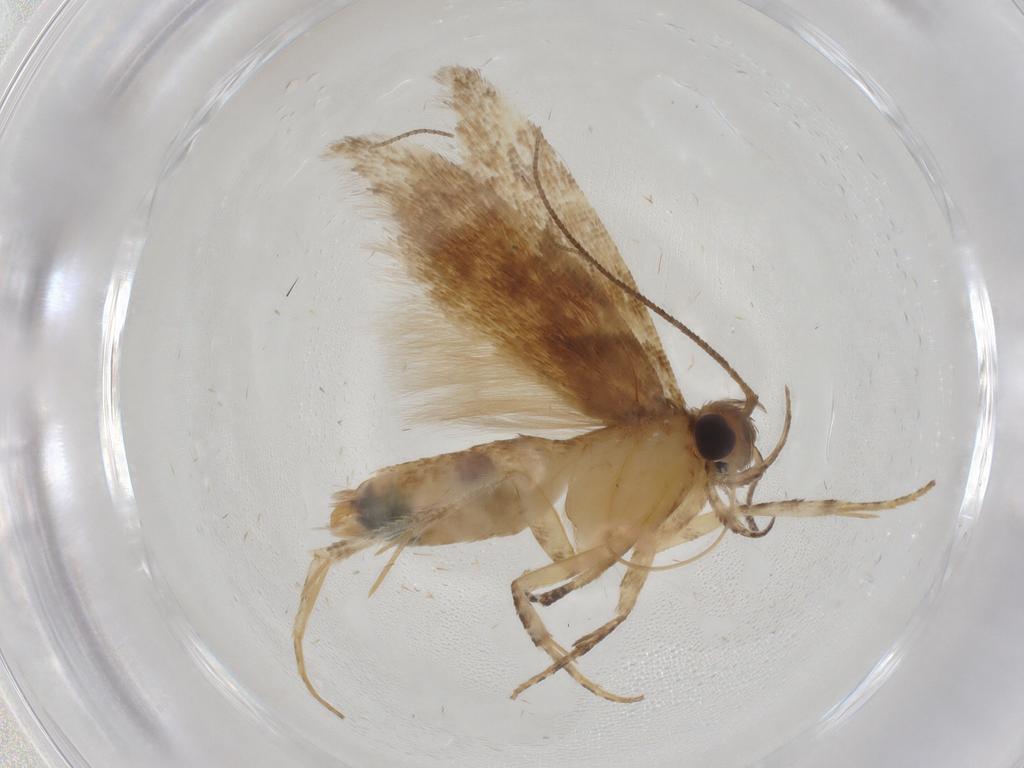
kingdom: Animalia
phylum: Arthropoda
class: Insecta
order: Lepidoptera
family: Gelechiidae
